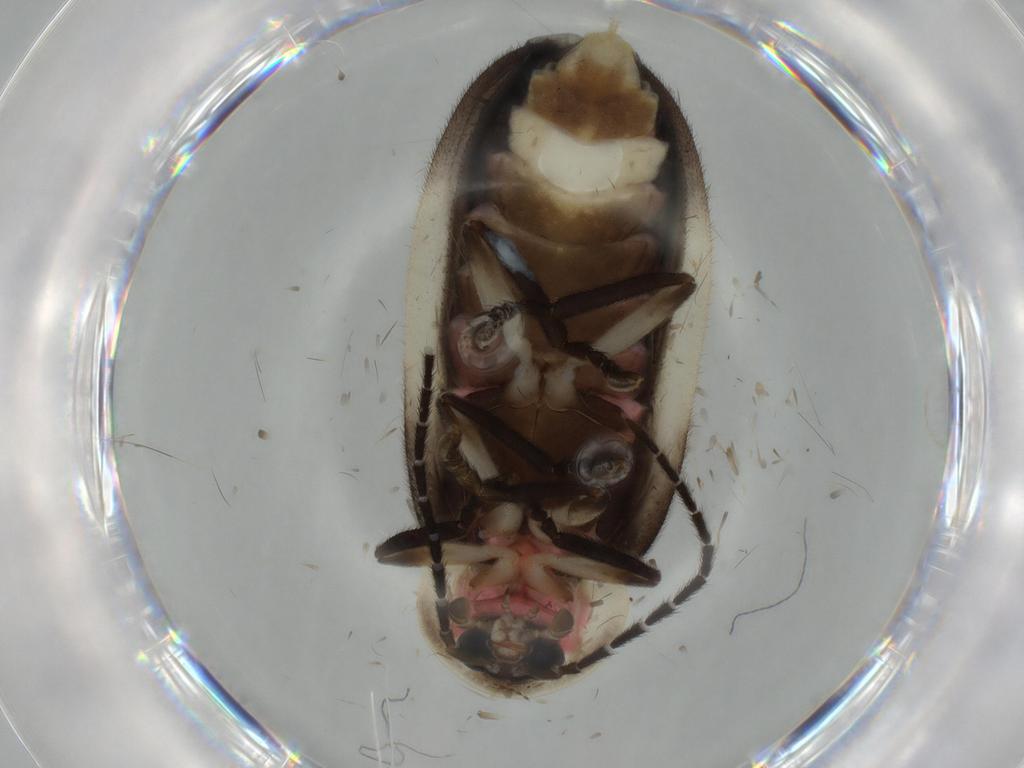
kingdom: Animalia
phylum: Arthropoda
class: Insecta
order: Coleoptera
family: Lampyridae
